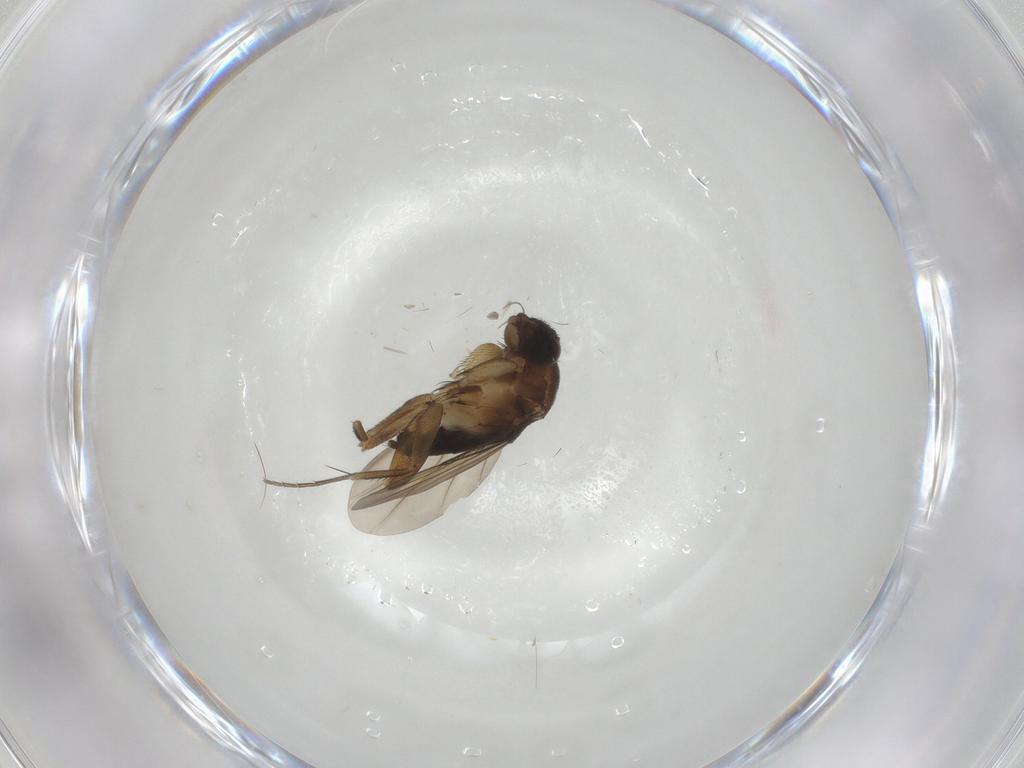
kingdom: Animalia
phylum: Arthropoda
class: Insecta
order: Diptera
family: Phoridae
